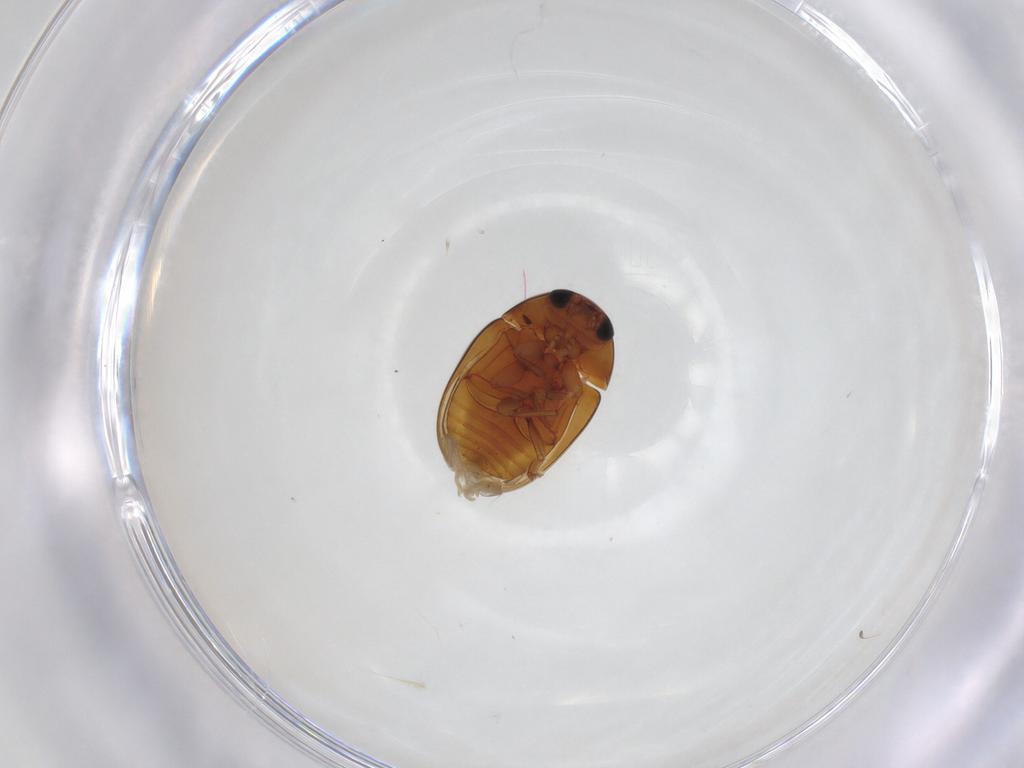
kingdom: Animalia
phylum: Arthropoda
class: Insecta
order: Coleoptera
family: Phalacridae
